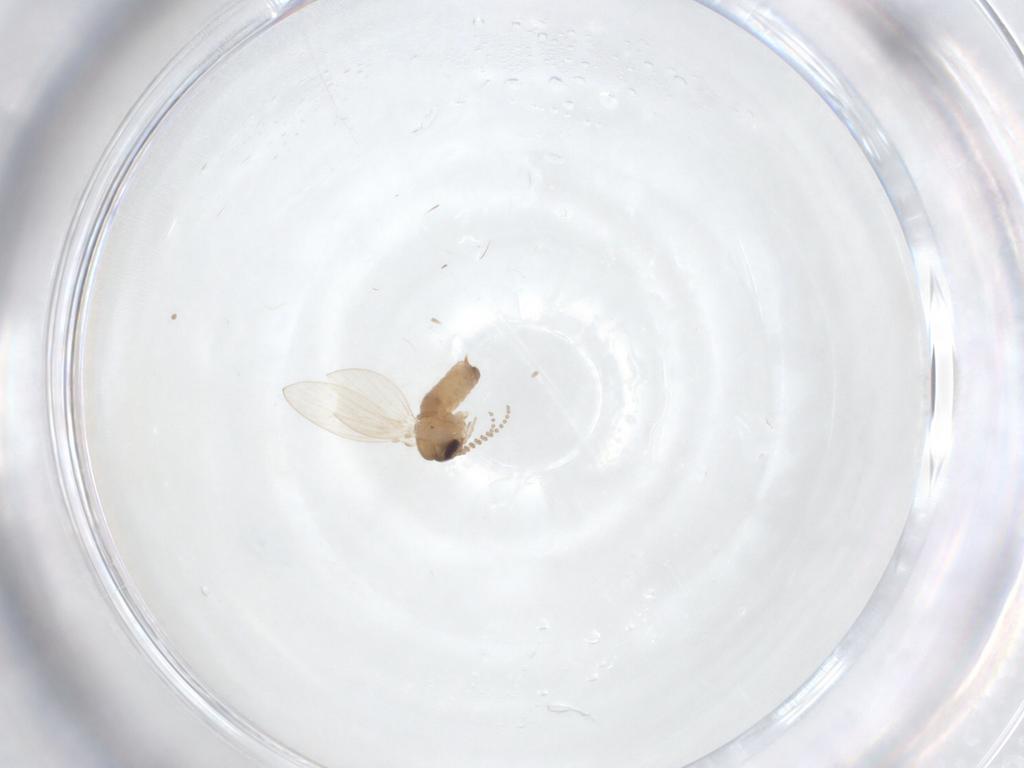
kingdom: Animalia
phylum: Arthropoda
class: Insecta
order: Diptera
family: Psychodidae
